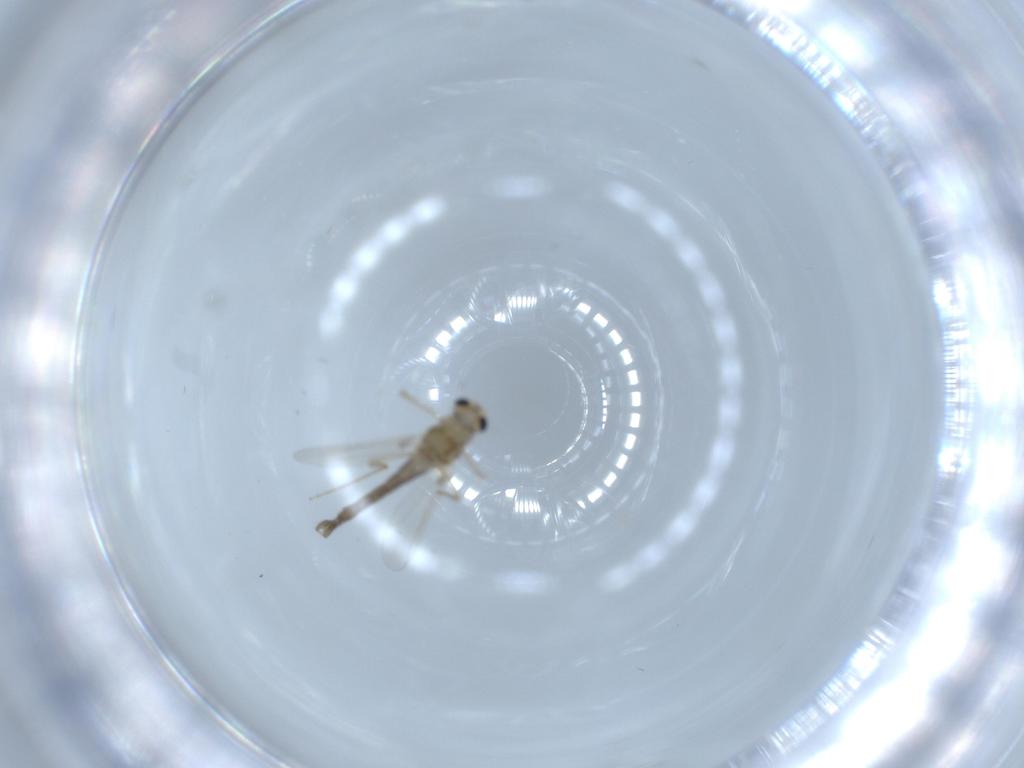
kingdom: Animalia
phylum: Arthropoda
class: Insecta
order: Diptera
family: Chironomidae
